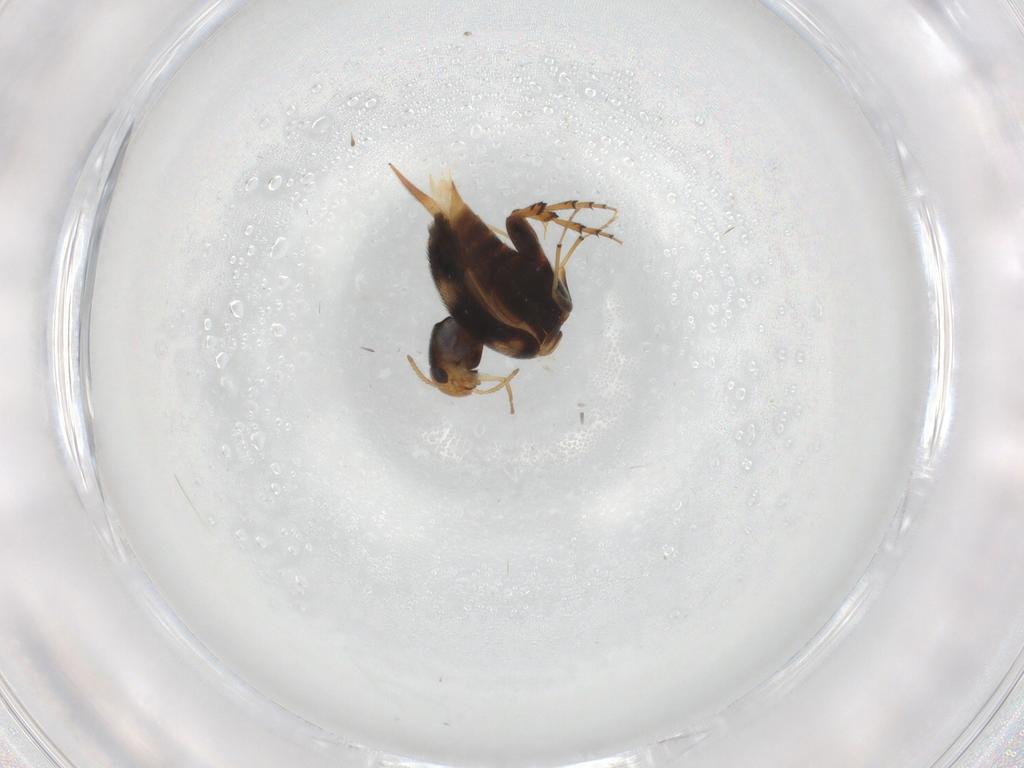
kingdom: Animalia
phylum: Arthropoda
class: Insecta
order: Coleoptera
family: Mordellidae
